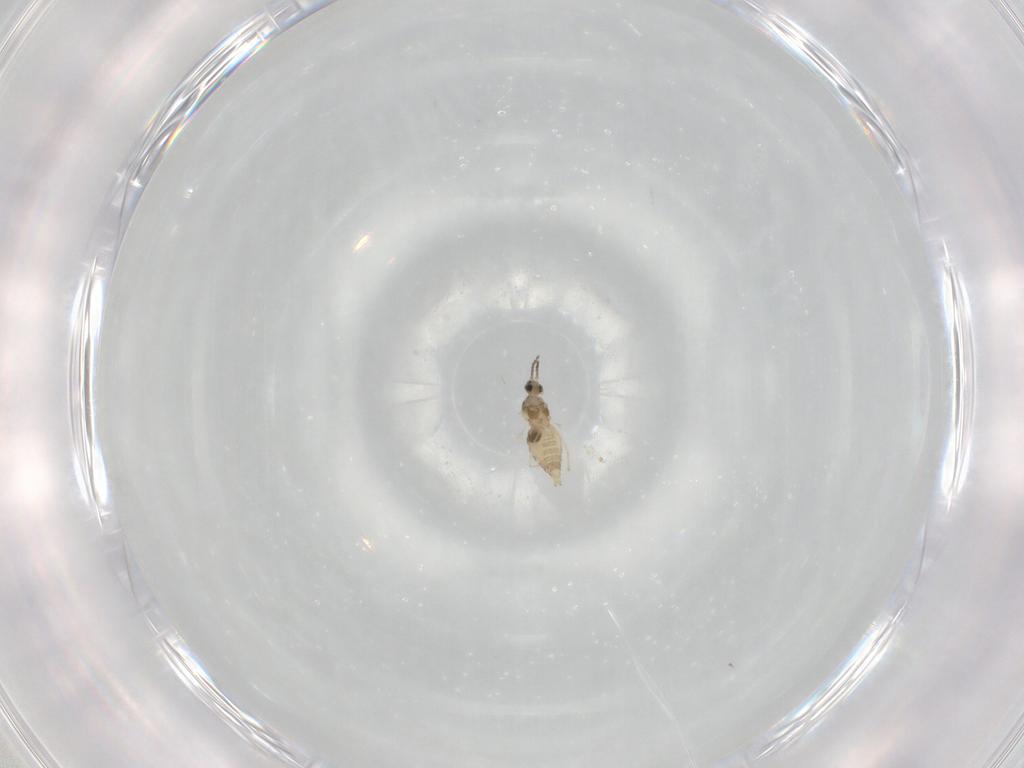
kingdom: Animalia
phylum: Arthropoda
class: Insecta
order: Diptera
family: Cecidomyiidae
